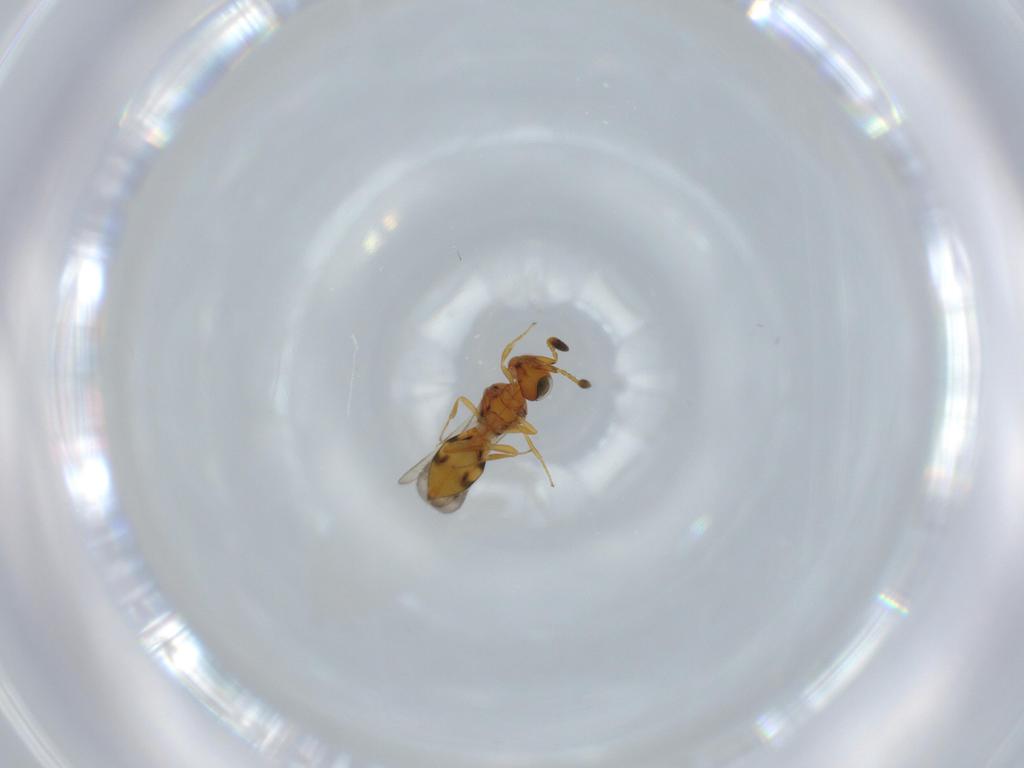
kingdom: Animalia
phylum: Arthropoda
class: Insecta
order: Hymenoptera
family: Scelionidae
